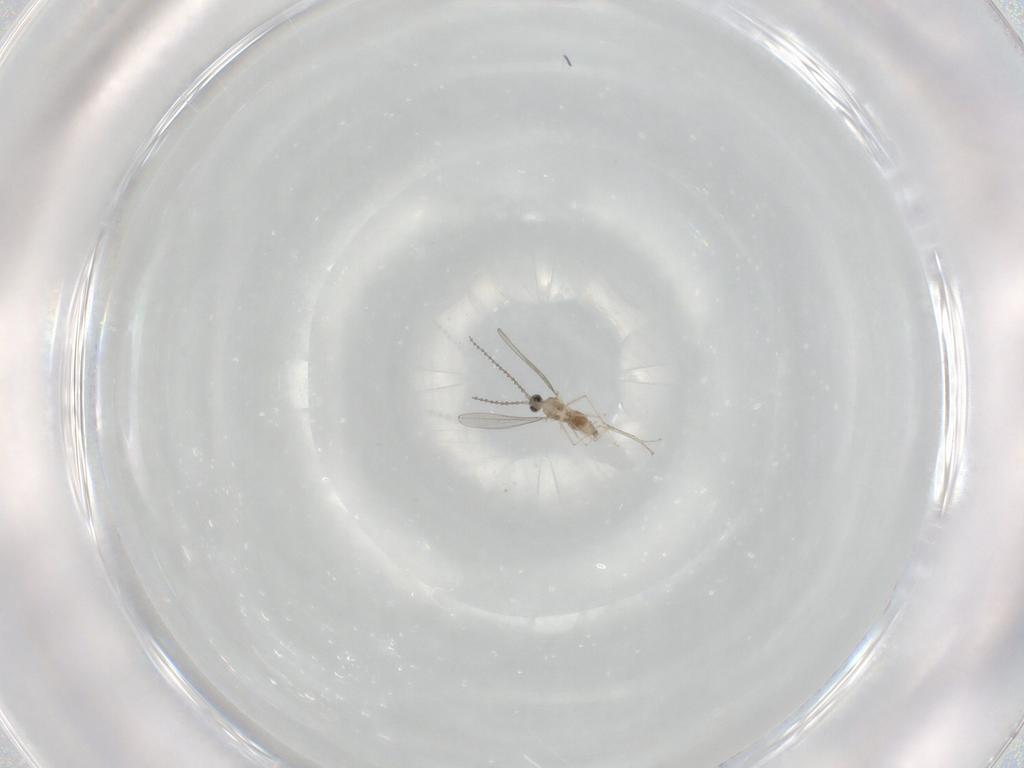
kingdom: Animalia
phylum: Arthropoda
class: Insecta
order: Diptera
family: Cecidomyiidae
